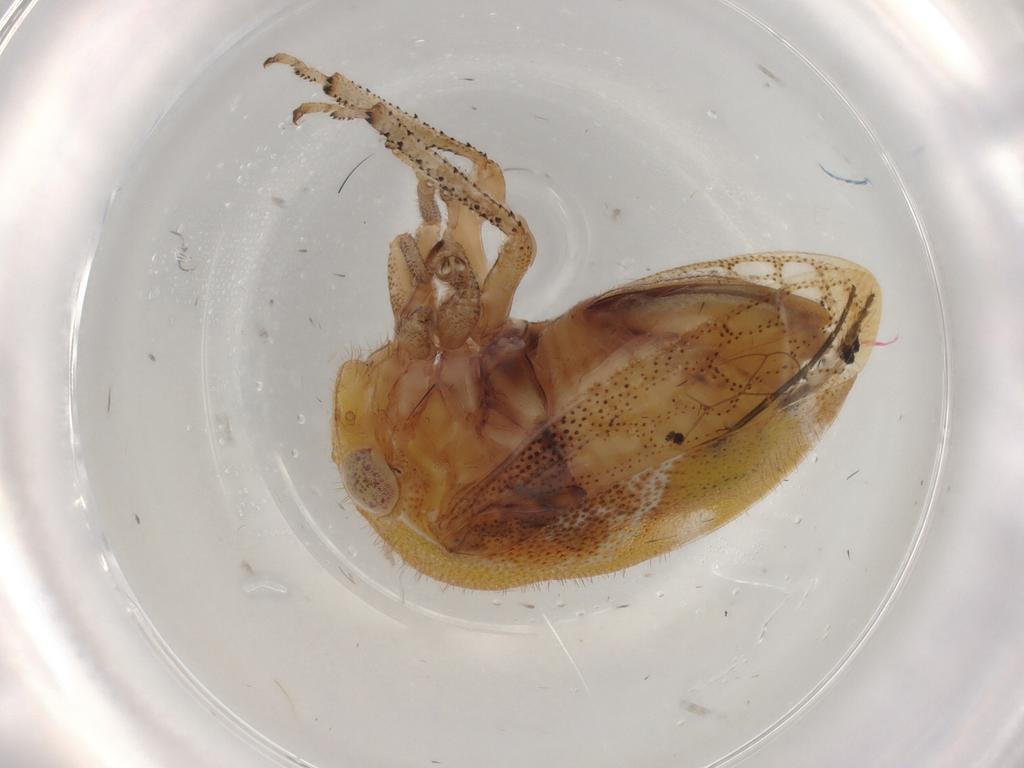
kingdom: Animalia
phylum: Arthropoda
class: Insecta
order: Hemiptera
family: Membracidae
